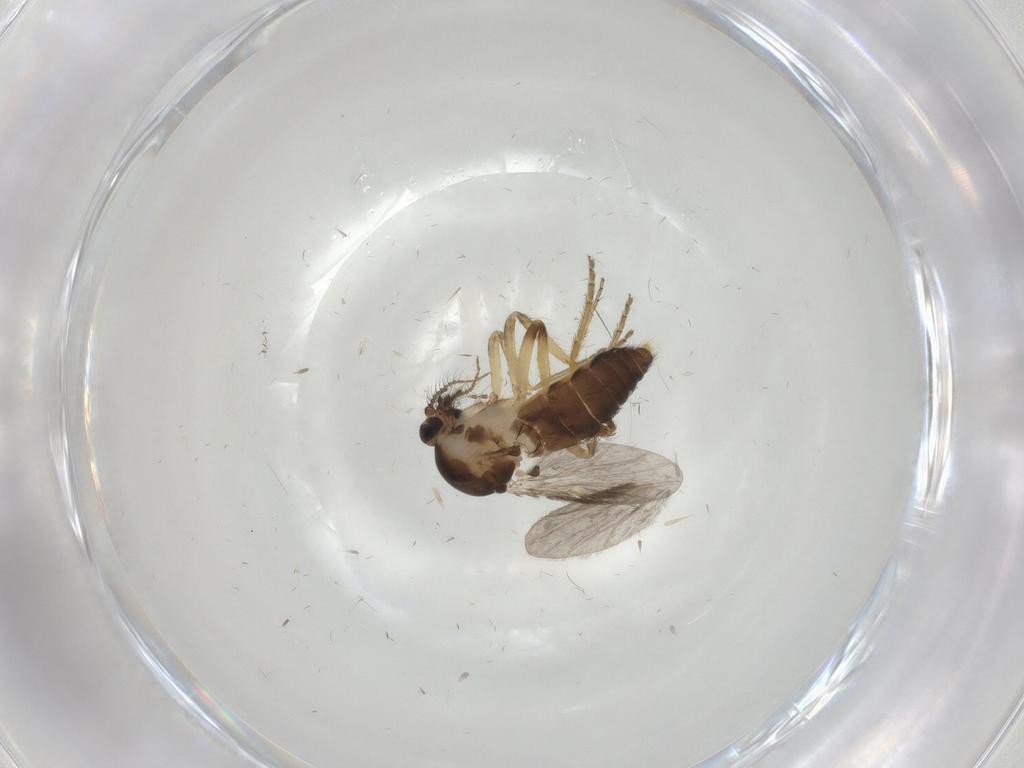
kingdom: Animalia
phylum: Arthropoda
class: Insecta
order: Diptera
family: Ceratopogonidae
